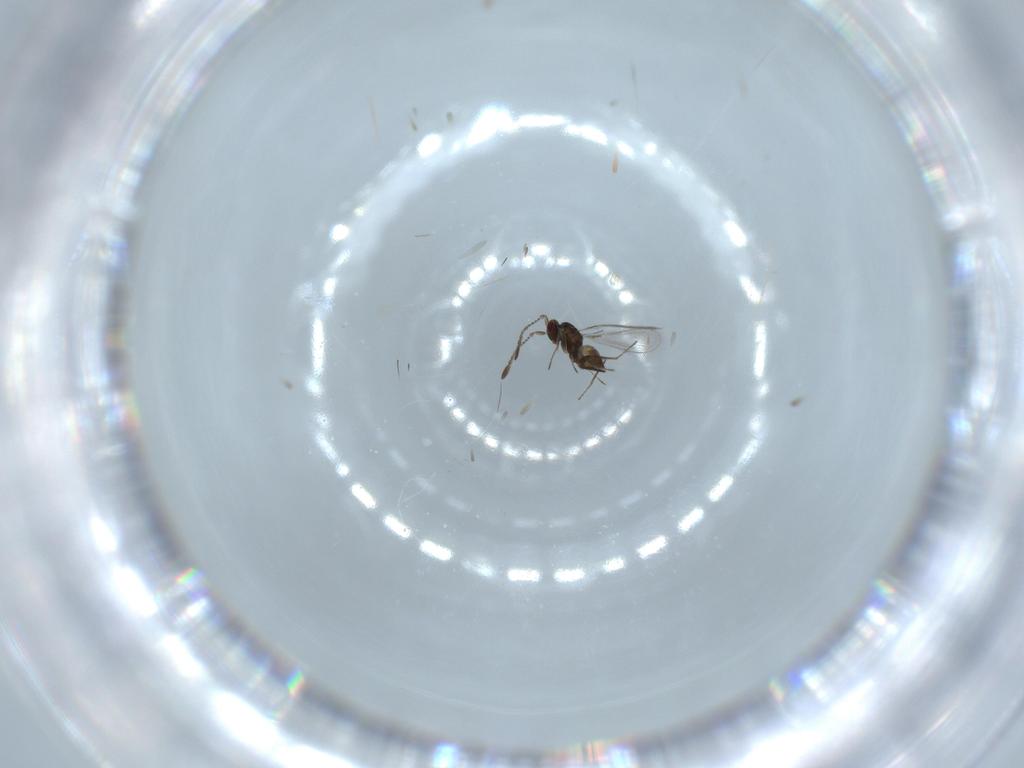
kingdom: Animalia
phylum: Arthropoda
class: Insecta
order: Hymenoptera
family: Mymaridae
